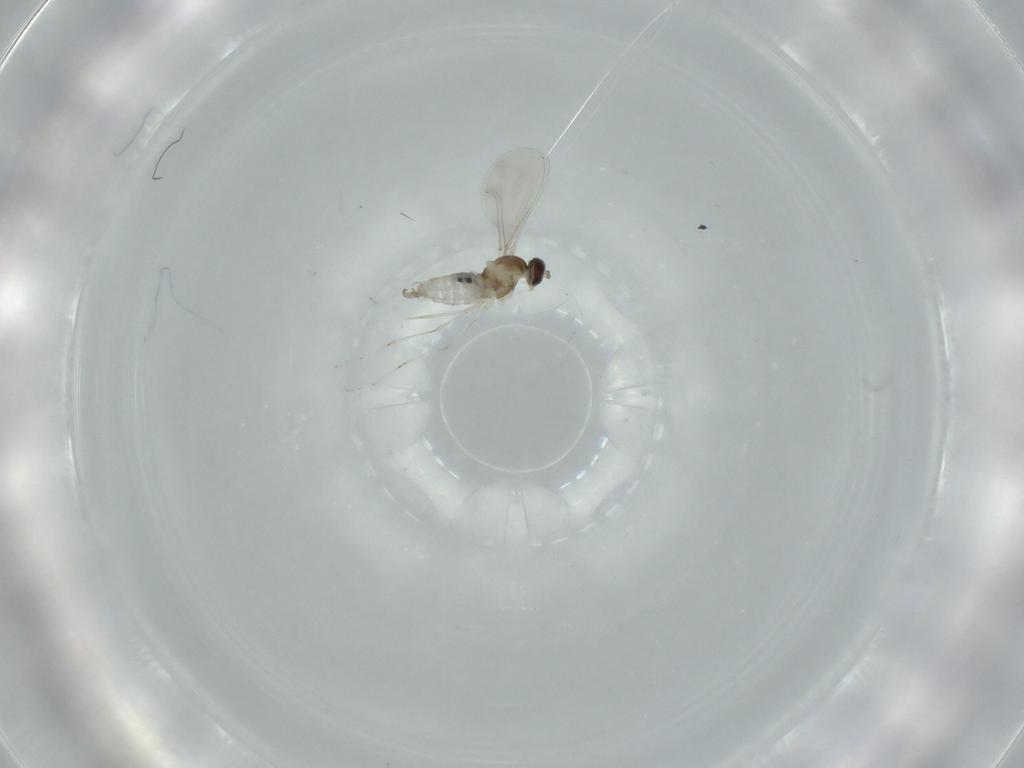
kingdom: Animalia
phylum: Arthropoda
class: Insecta
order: Diptera
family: Cecidomyiidae
